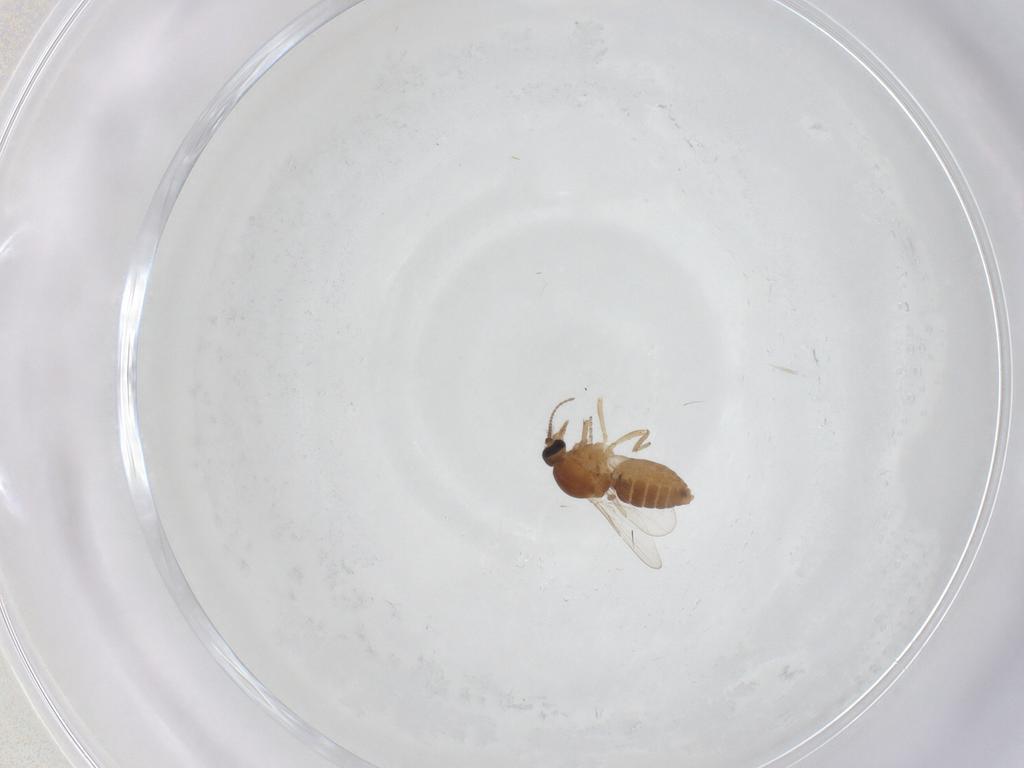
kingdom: Animalia
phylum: Arthropoda
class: Insecta
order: Diptera
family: Ceratopogonidae
